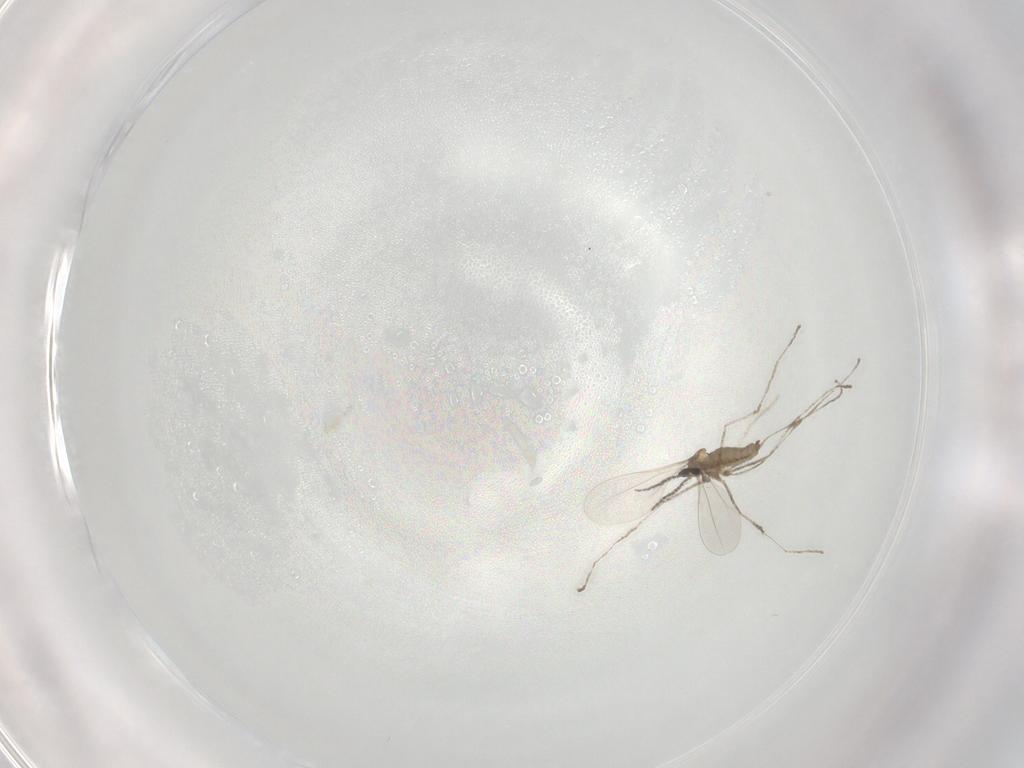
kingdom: Animalia
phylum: Arthropoda
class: Insecta
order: Diptera
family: Cecidomyiidae
